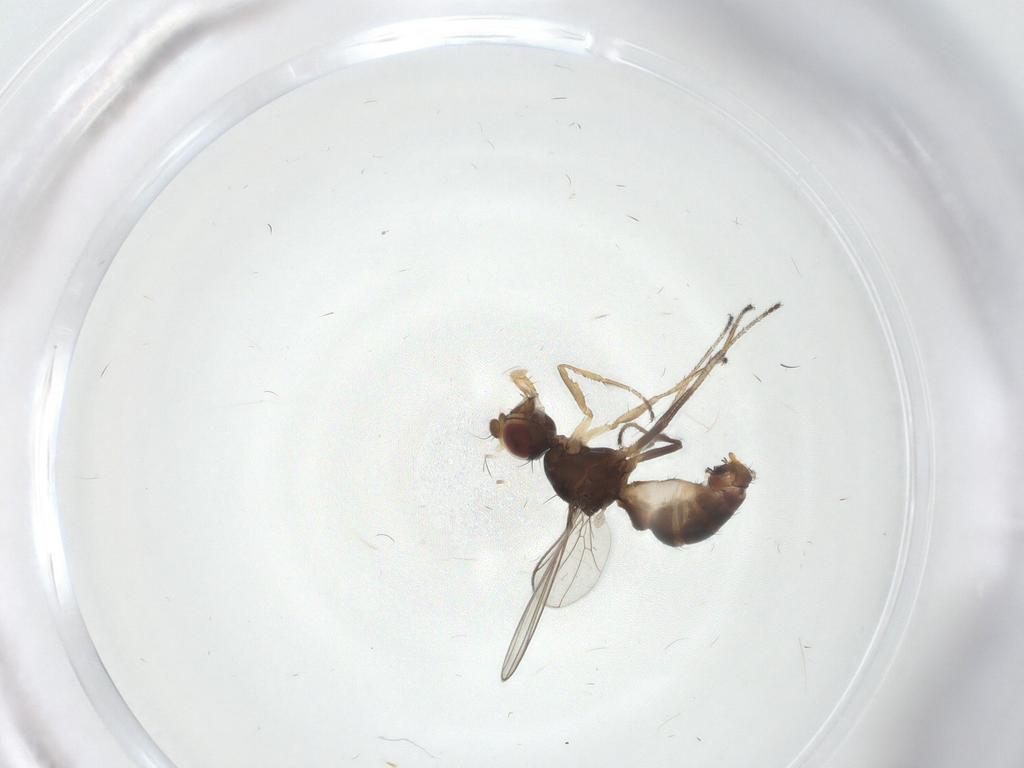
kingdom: Animalia
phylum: Arthropoda
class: Insecta
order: Diptera
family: Sepsidae
